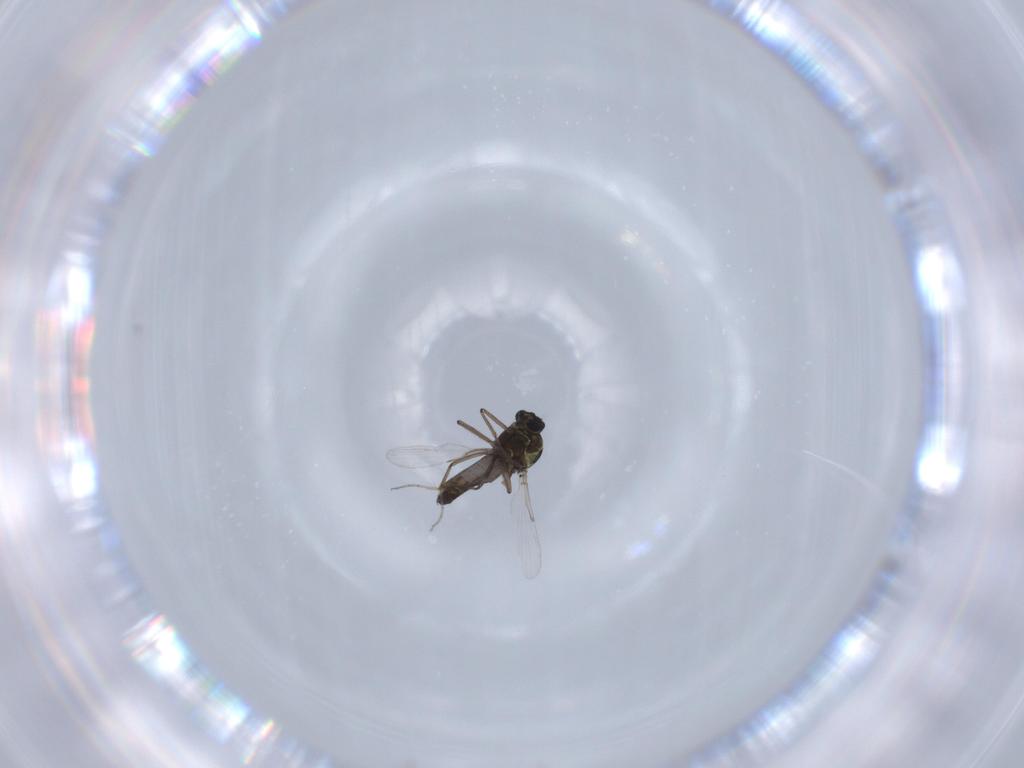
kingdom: Animalia
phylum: Arthropoda
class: Insecta
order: Diptera
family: Ceratopogonidae
